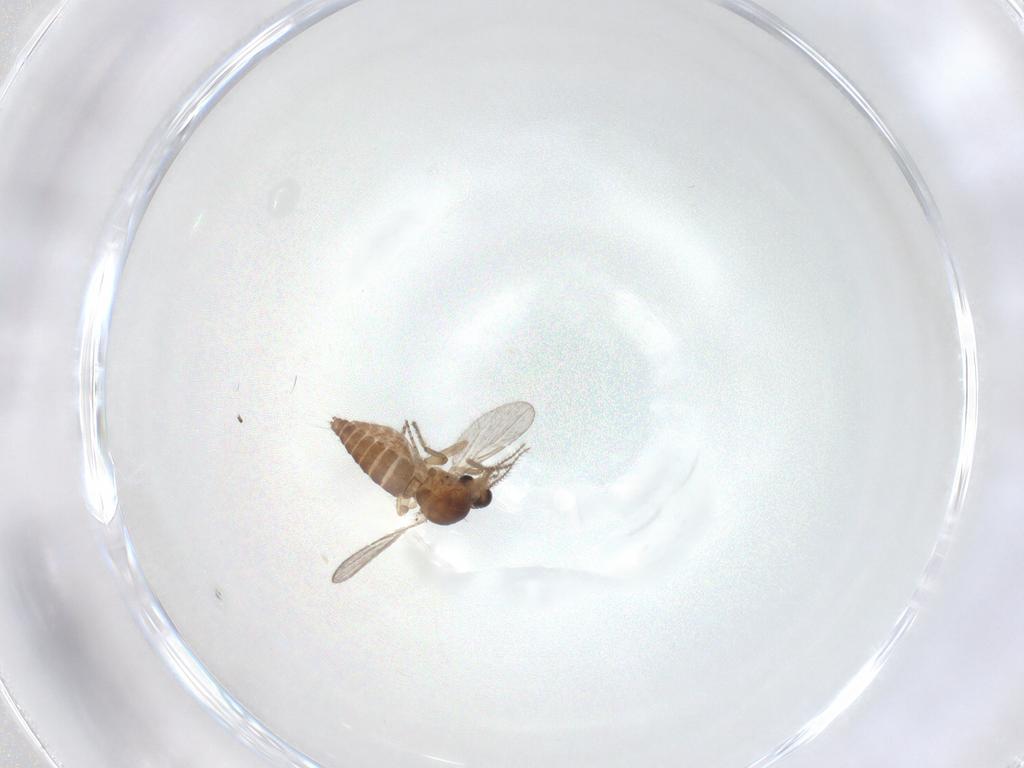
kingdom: Animalia
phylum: Arthropoda
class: Insecta
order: Diptera
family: Ceratopogonidae
